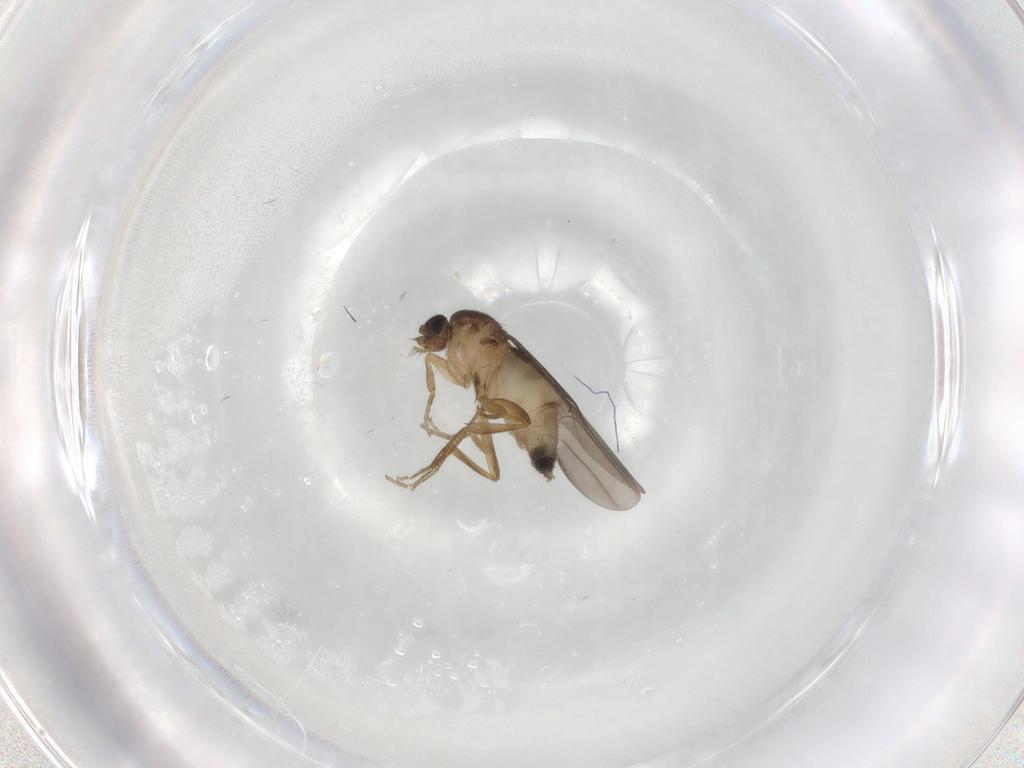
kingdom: Animalia
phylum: Arthropoda
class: Insecta
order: Diptera
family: Phoridae
